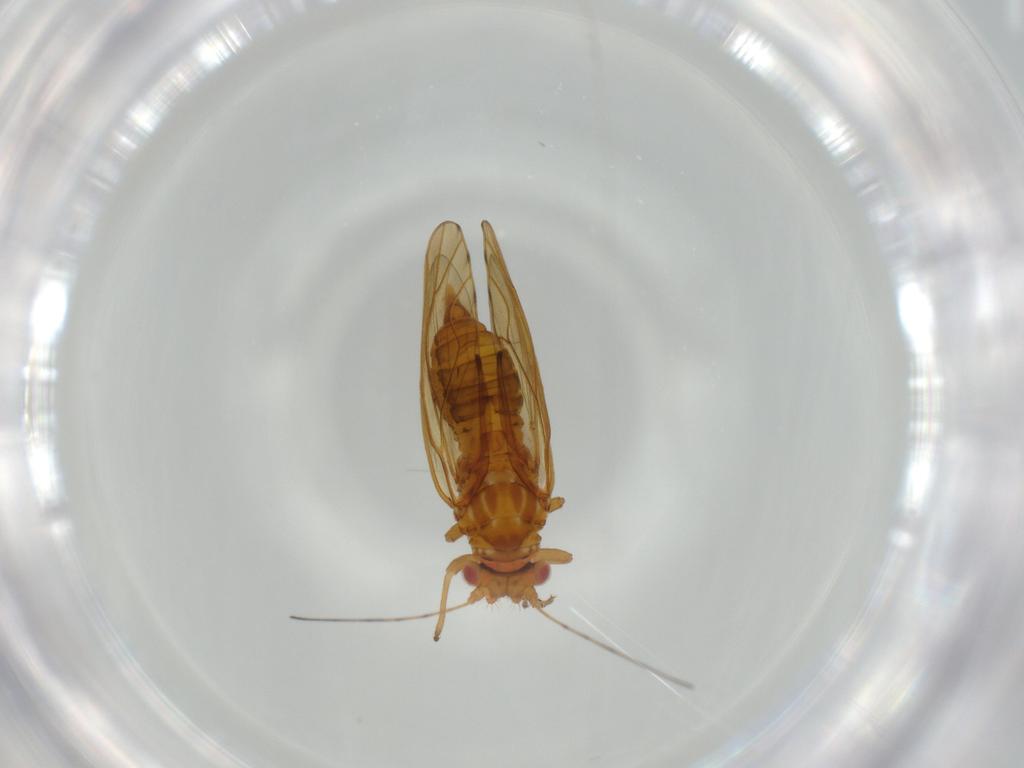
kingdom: Animalia
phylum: Arthropoda
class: Insecta
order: Hemiptera
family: Psylloidea_incertae_sedis
